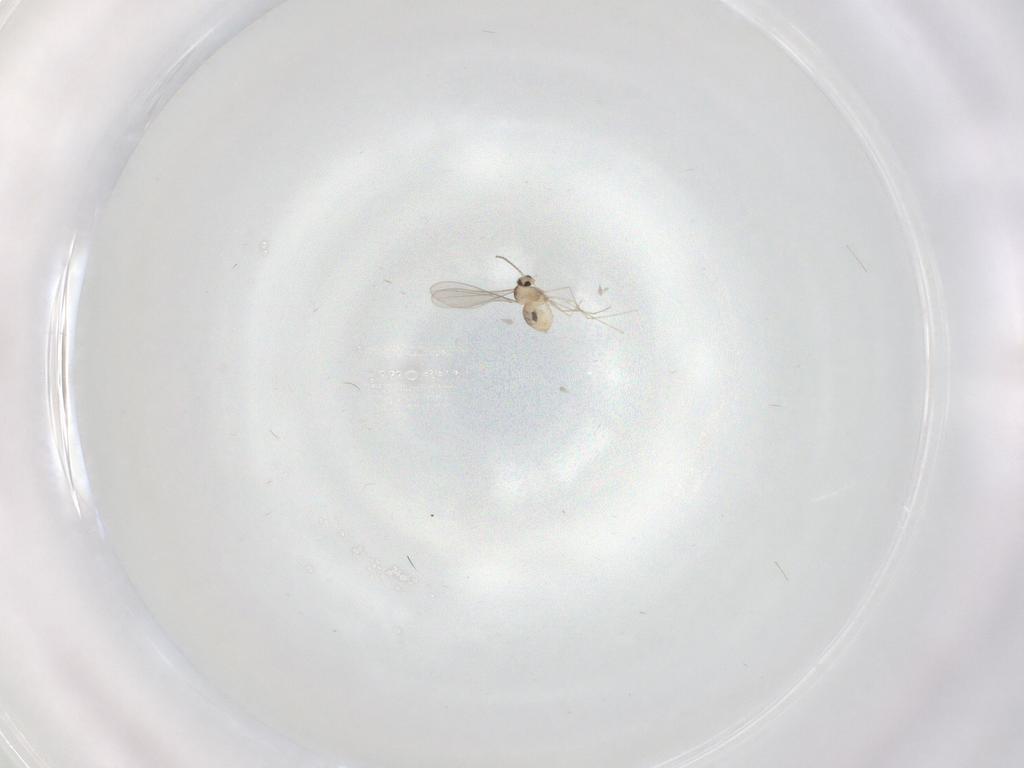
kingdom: Animalia
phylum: Arthropoda
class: Insecta
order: Diptera
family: Cecidomyiidae
